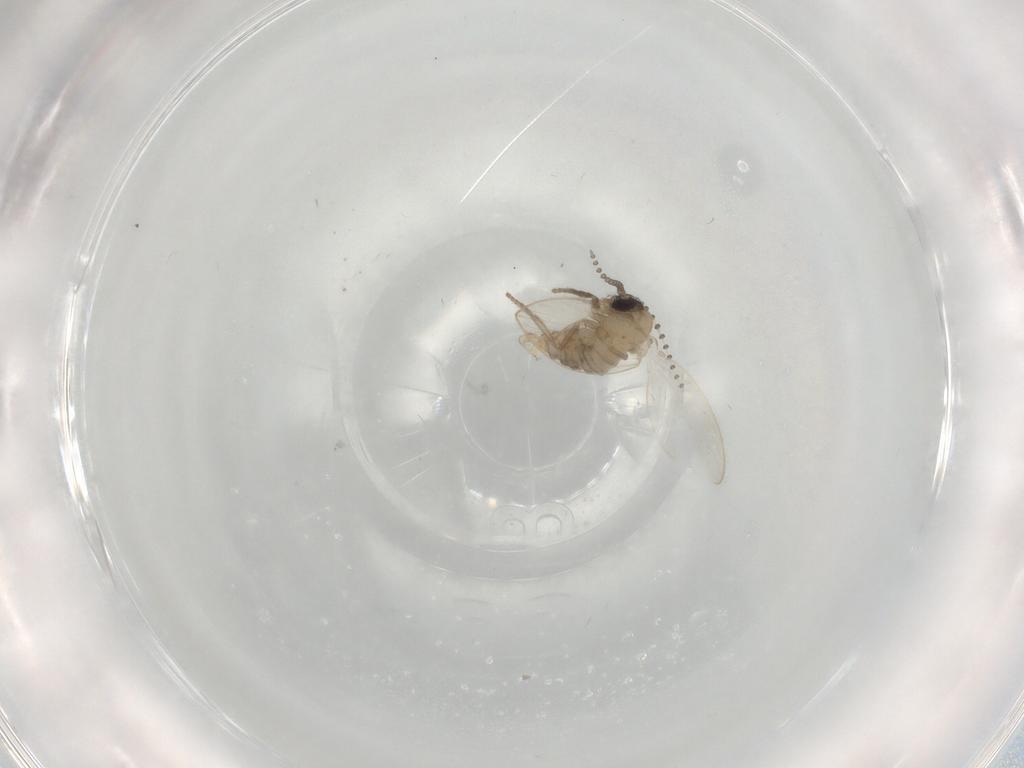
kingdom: Animalia
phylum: Arthropoda
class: Insecta
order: Diptera
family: Psychodidae
